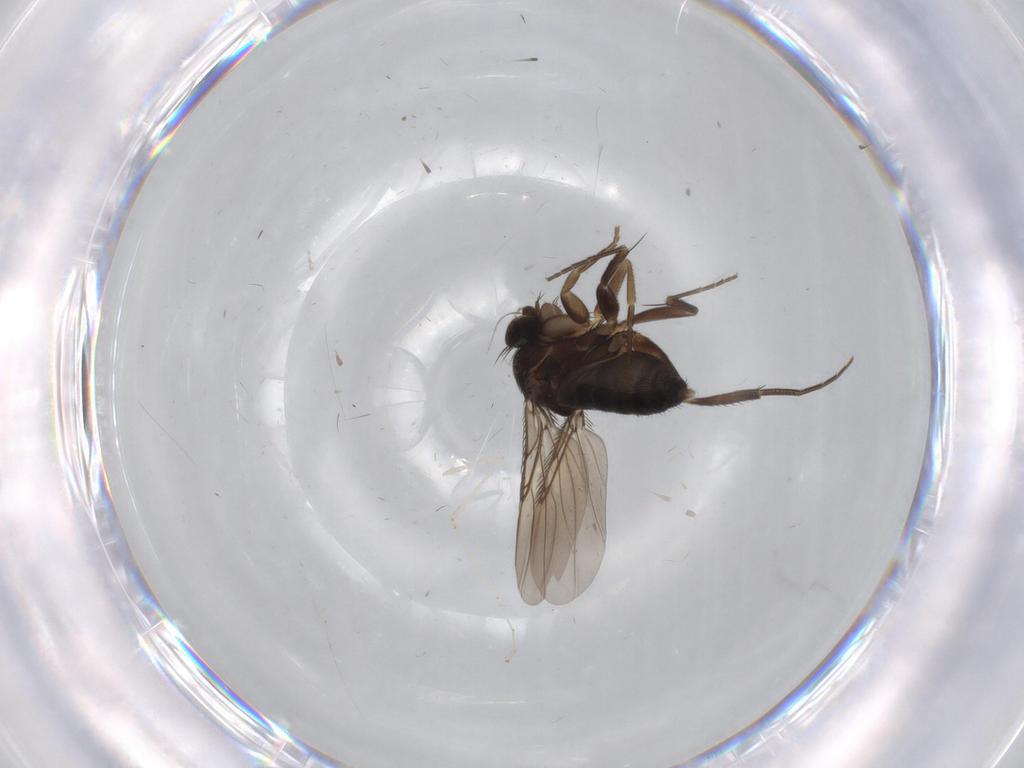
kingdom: Animalia
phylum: Arthropoda
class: Insecta
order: Diptera
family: Phoridae
